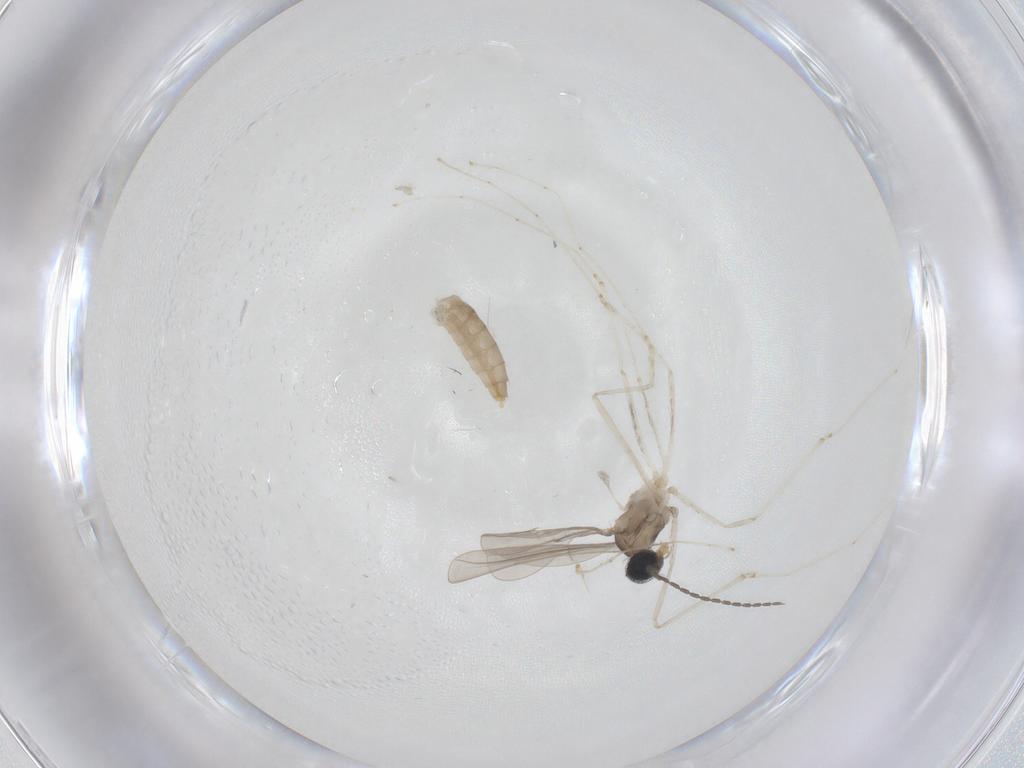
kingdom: Animalia
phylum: Arthropoda
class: Insecta
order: Diptera
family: Cecidomyiidae
